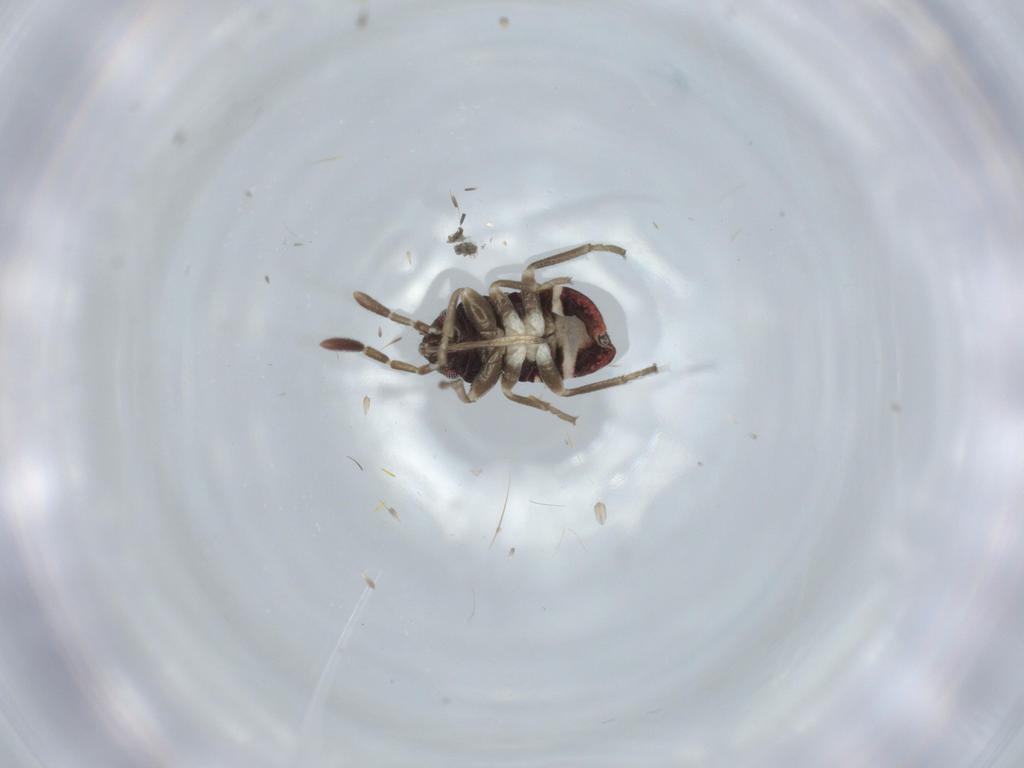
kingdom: Animalia
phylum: Arthropoda
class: Insecta
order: Hemiptera
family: Rhyparochromidae
